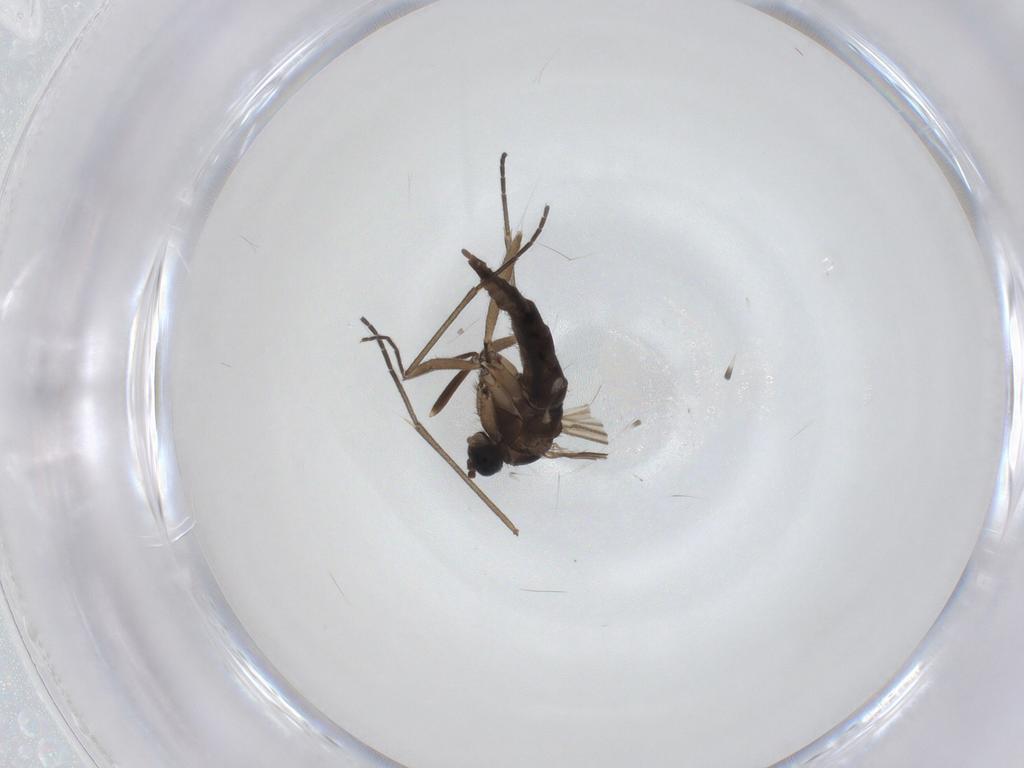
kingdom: Animalia
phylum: Arthropoda
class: Insecta
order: Diptera
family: Sciaridae
